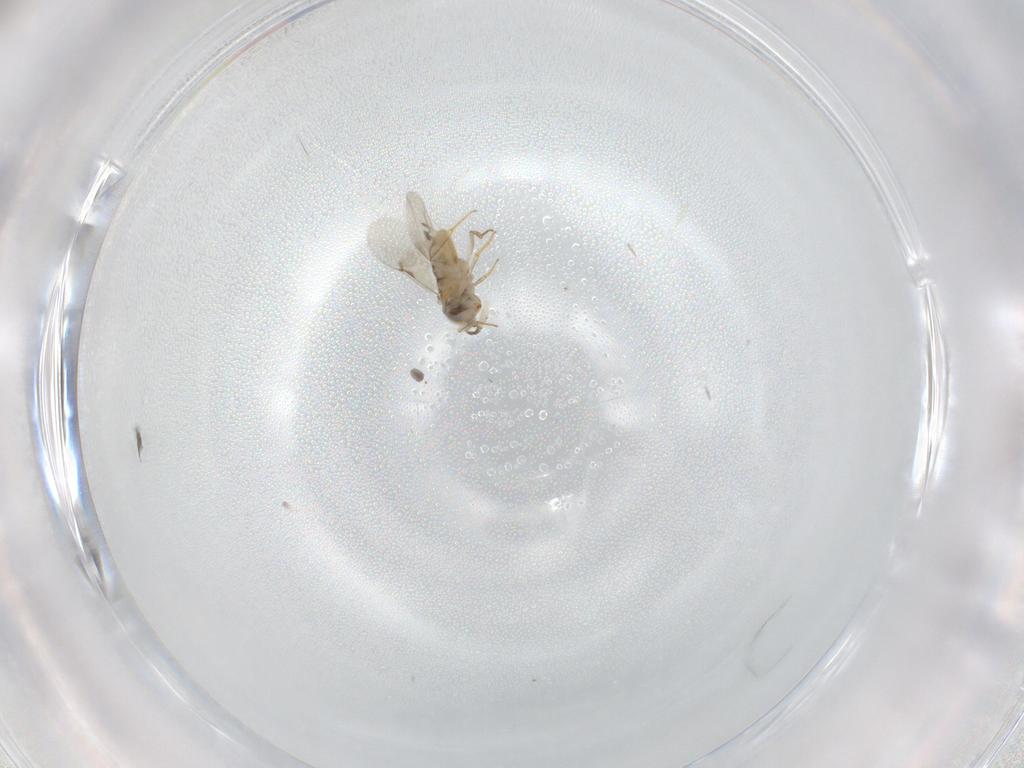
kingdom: Animalia
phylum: Arthropoda
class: Insecta
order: Hymenoptera
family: Encyrtidae
